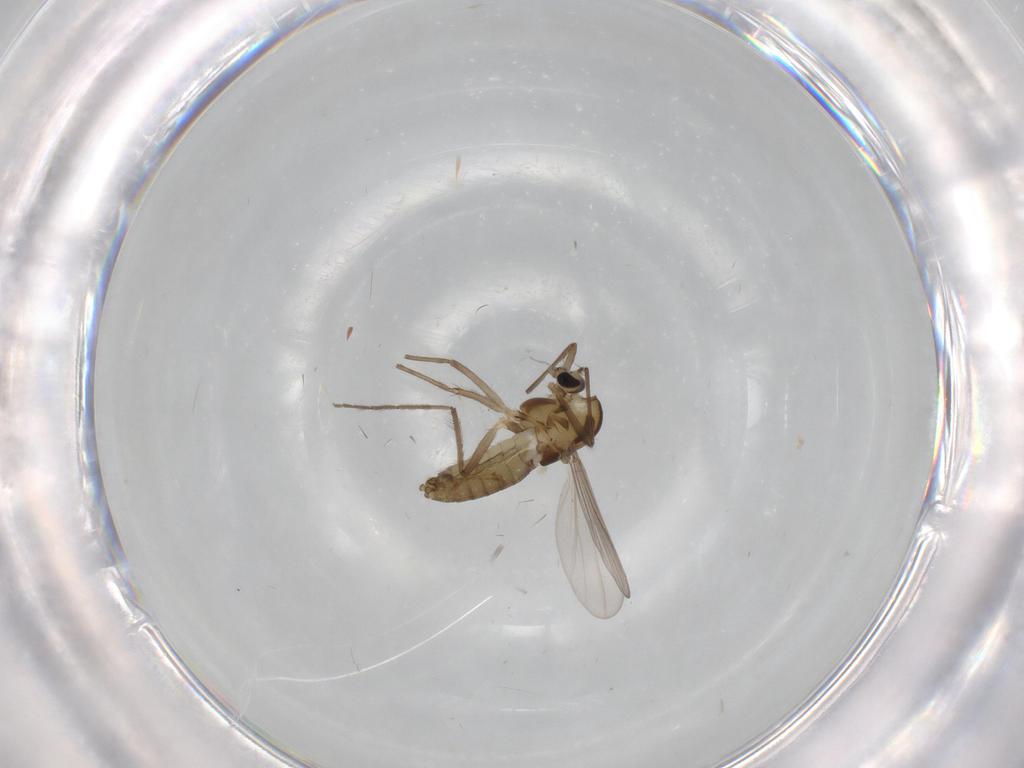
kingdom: Animalia
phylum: Arthropoda
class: Insecta
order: Diptera
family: Chironomidae
